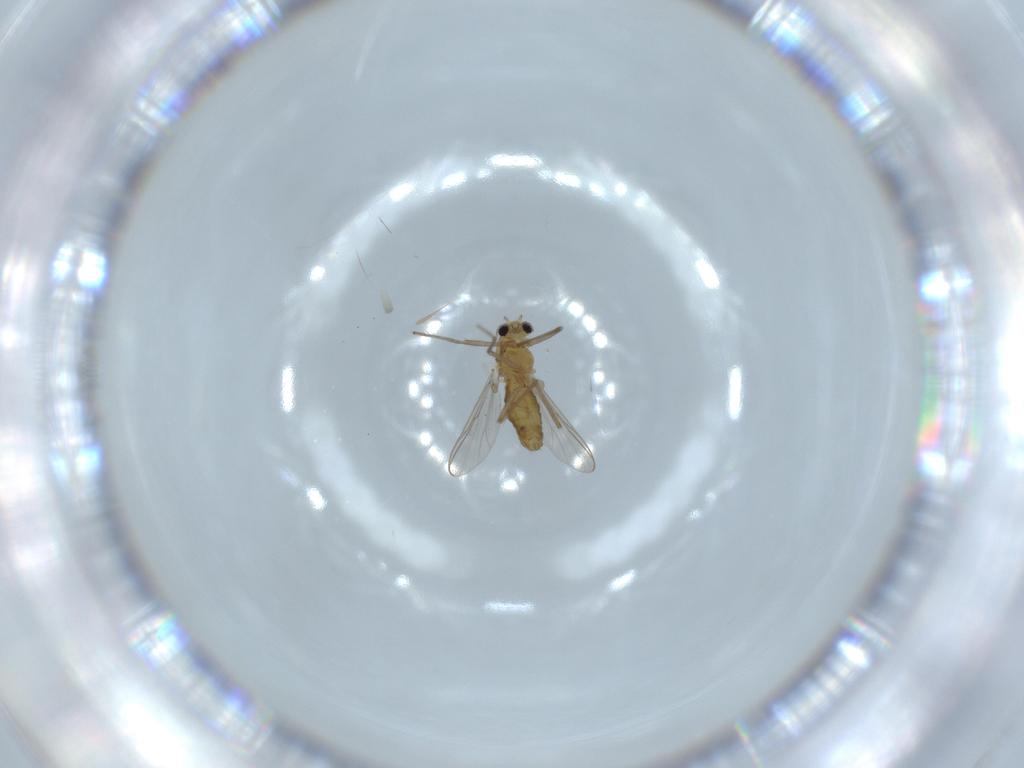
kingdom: Animalia
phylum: Arthropoda
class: Insecta
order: Diptera
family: Chironomidae
